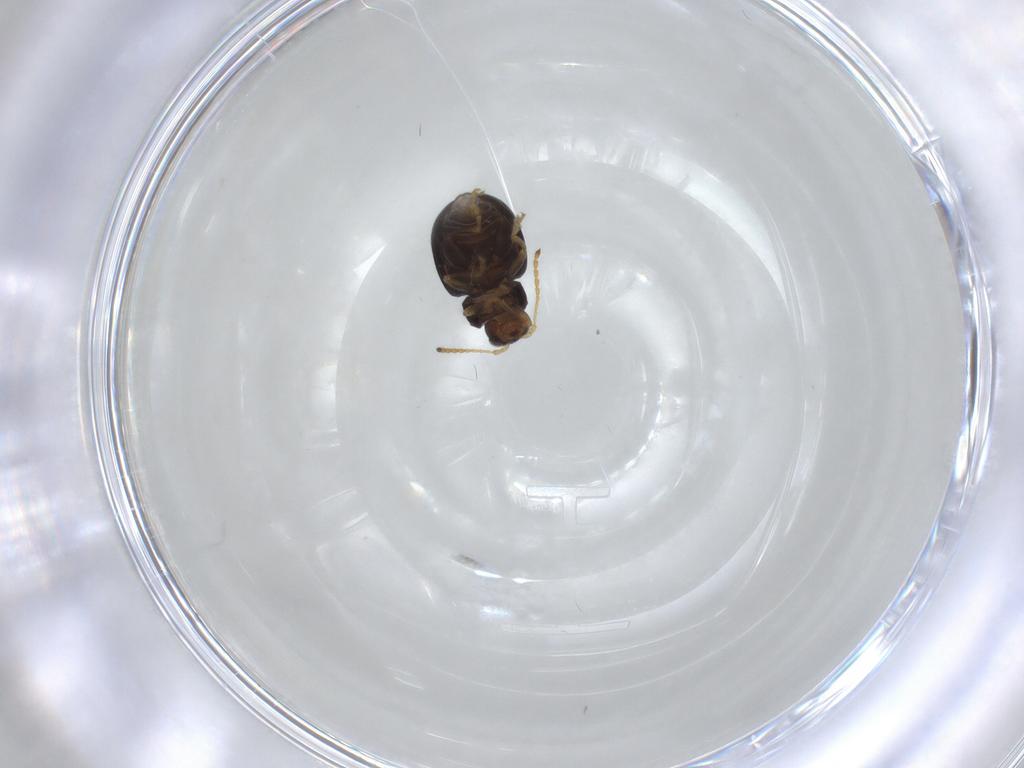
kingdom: Animalia
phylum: Arthropoda
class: Insecta
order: Coleoptera
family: Chrysomelidae
